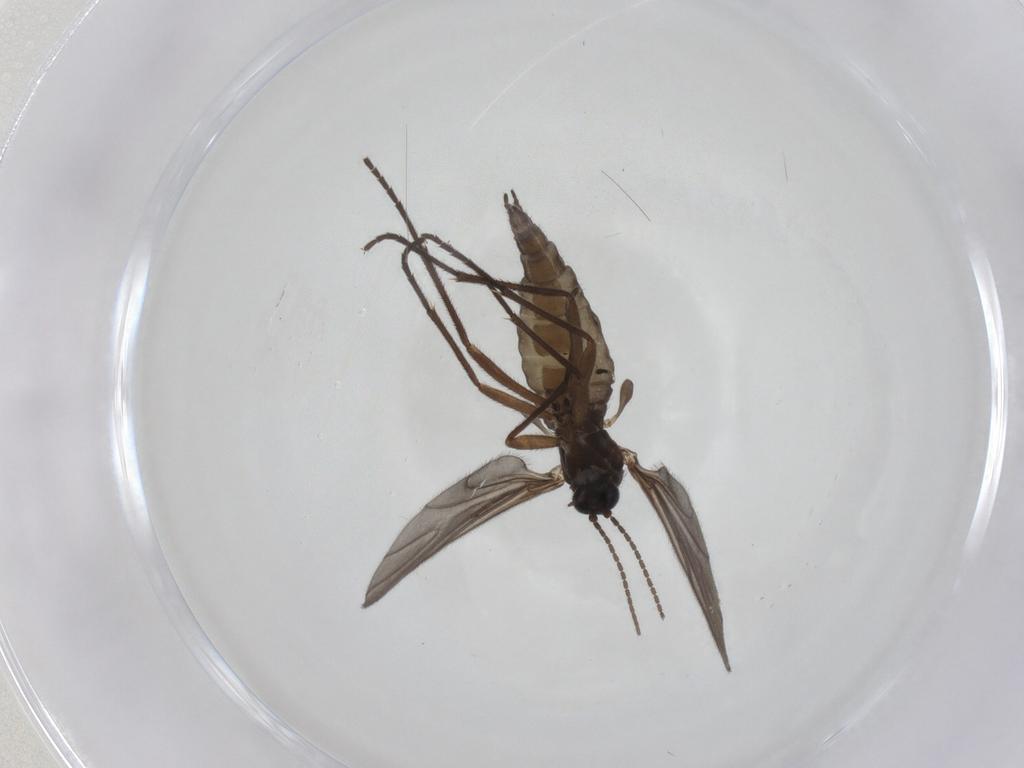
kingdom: Animalia
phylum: Arthropoda
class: Insecta
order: Diptera
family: Sciaridae
